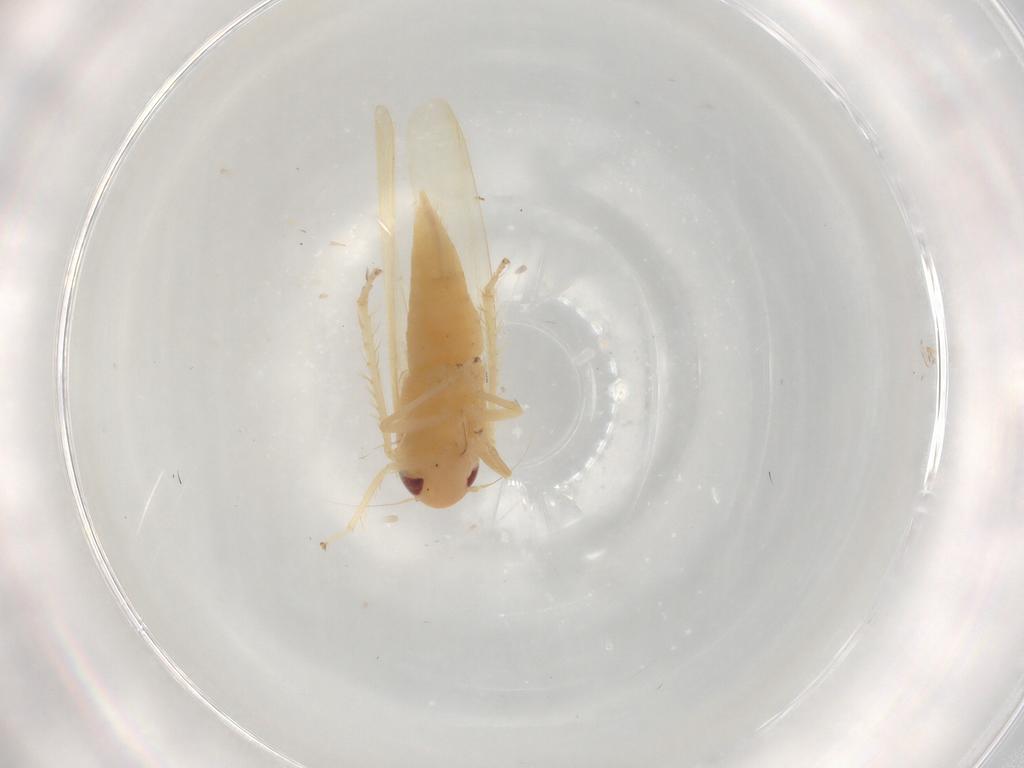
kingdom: Animalia
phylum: Arthropoda
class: Insecta
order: Hemiptera
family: Cicadellidae
